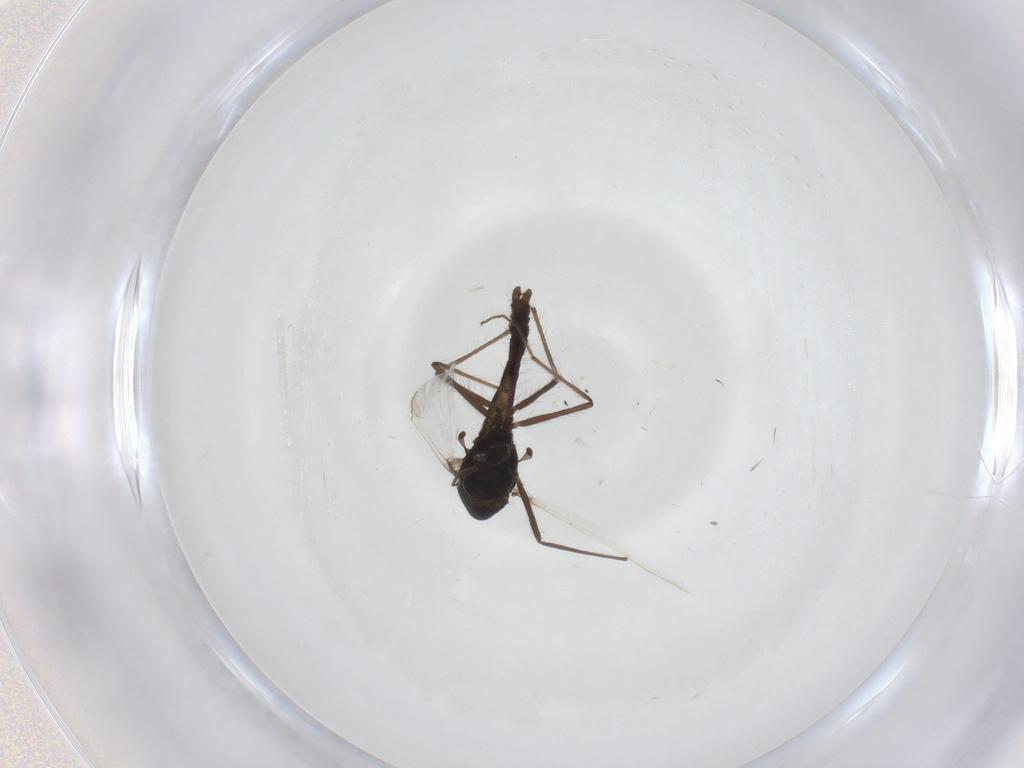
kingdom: Animalia
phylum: Arthropoda
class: Insecta
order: Diptera
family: Chironomidae
